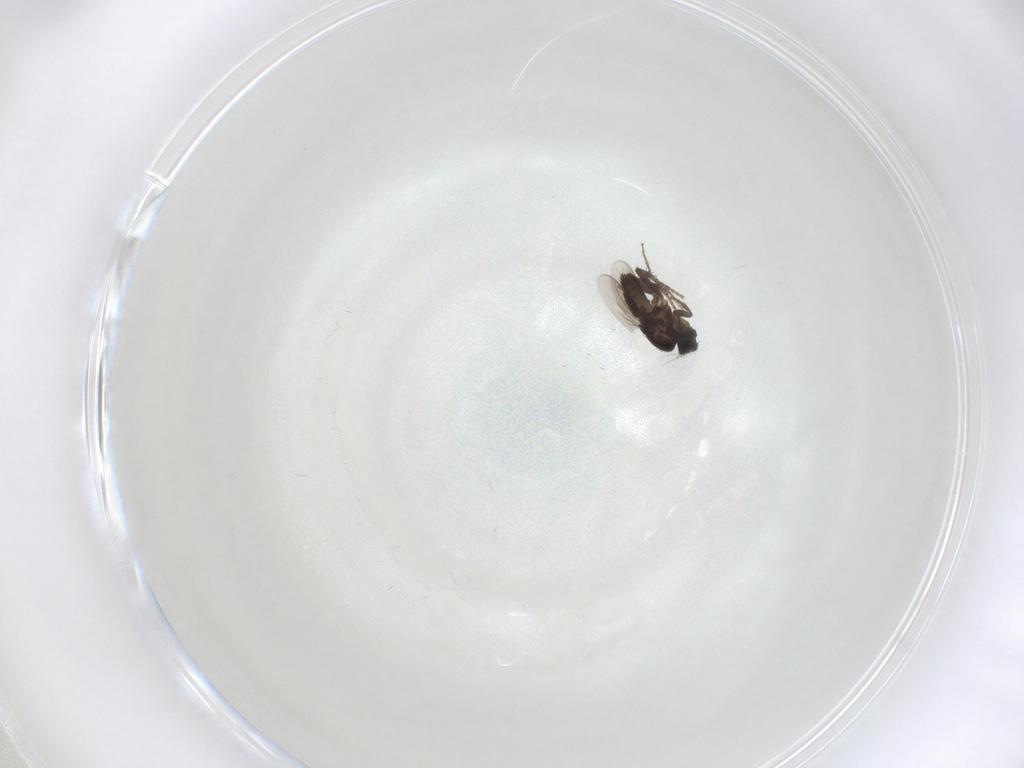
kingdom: Animalia
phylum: Arthropoda
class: Insecta
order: Diptera
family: Phoridae
